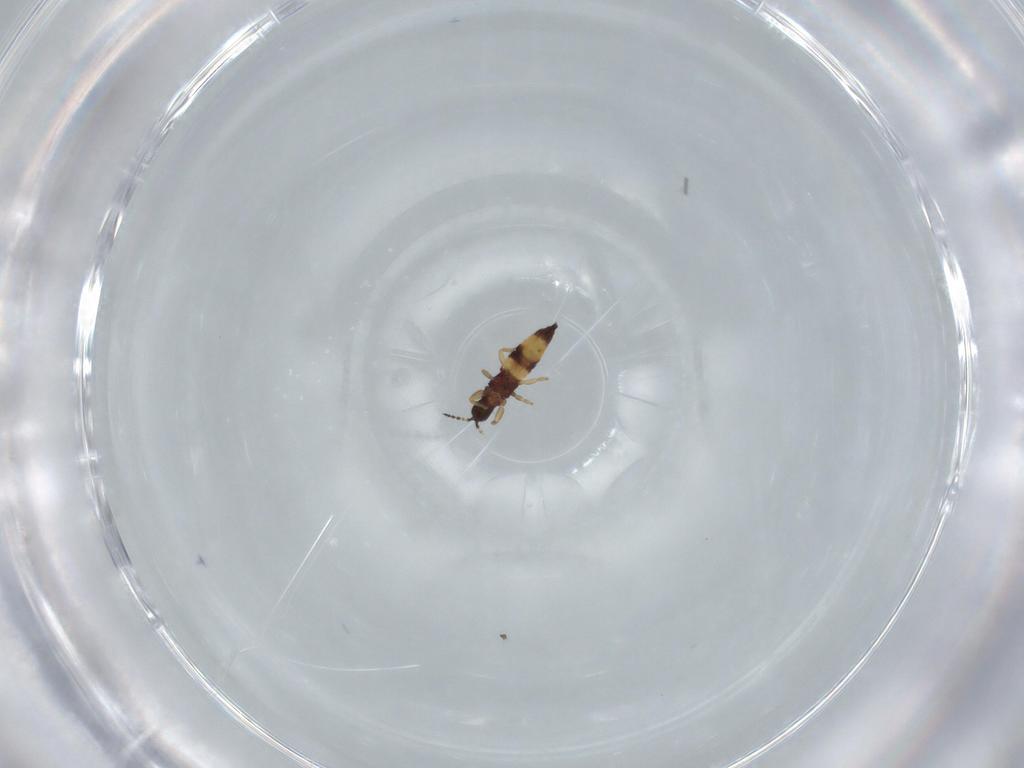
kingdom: Animalia
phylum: Arthropoda
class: Insecta
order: Thysanoptera
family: Phlaeothripidae
